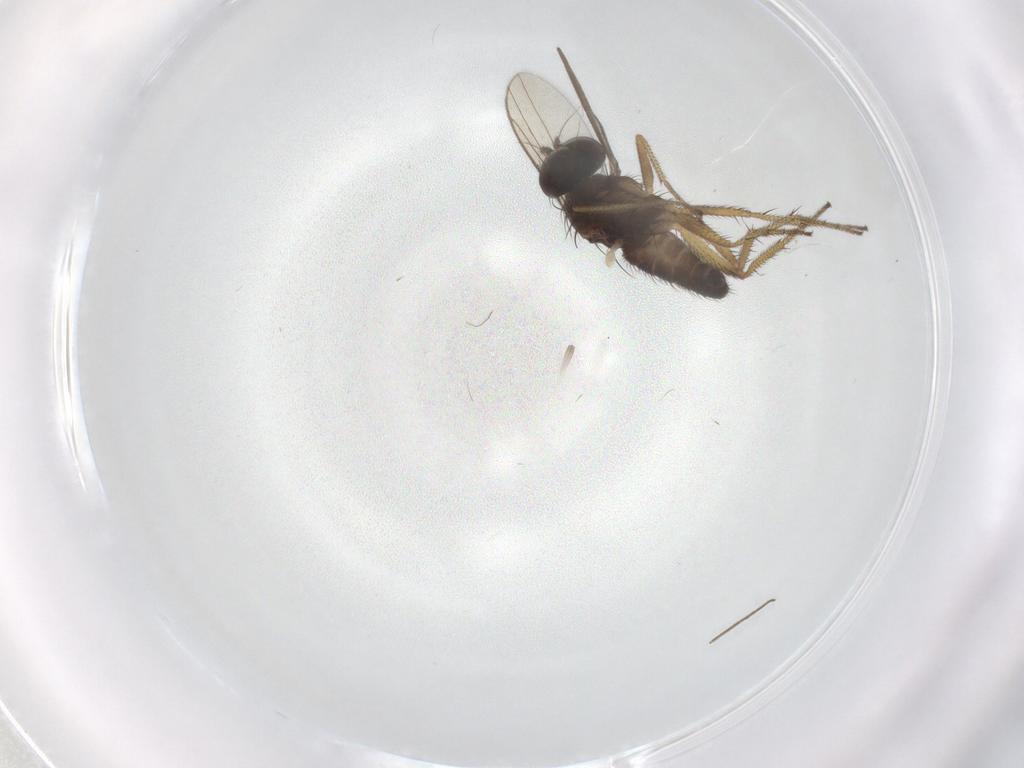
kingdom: Animalia
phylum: Arthropoda
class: Insecta
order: Diptera
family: Dolichopodidae
